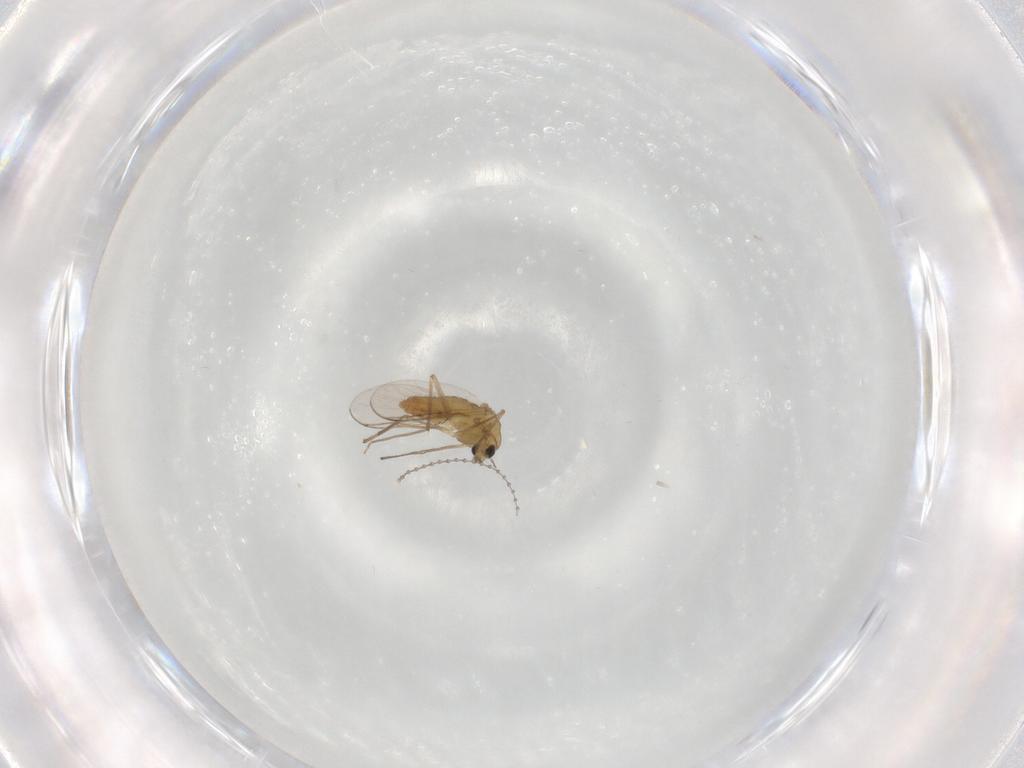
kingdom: Animalia
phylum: Arthropoda
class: Insecta
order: Diptera
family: Chironomidae
